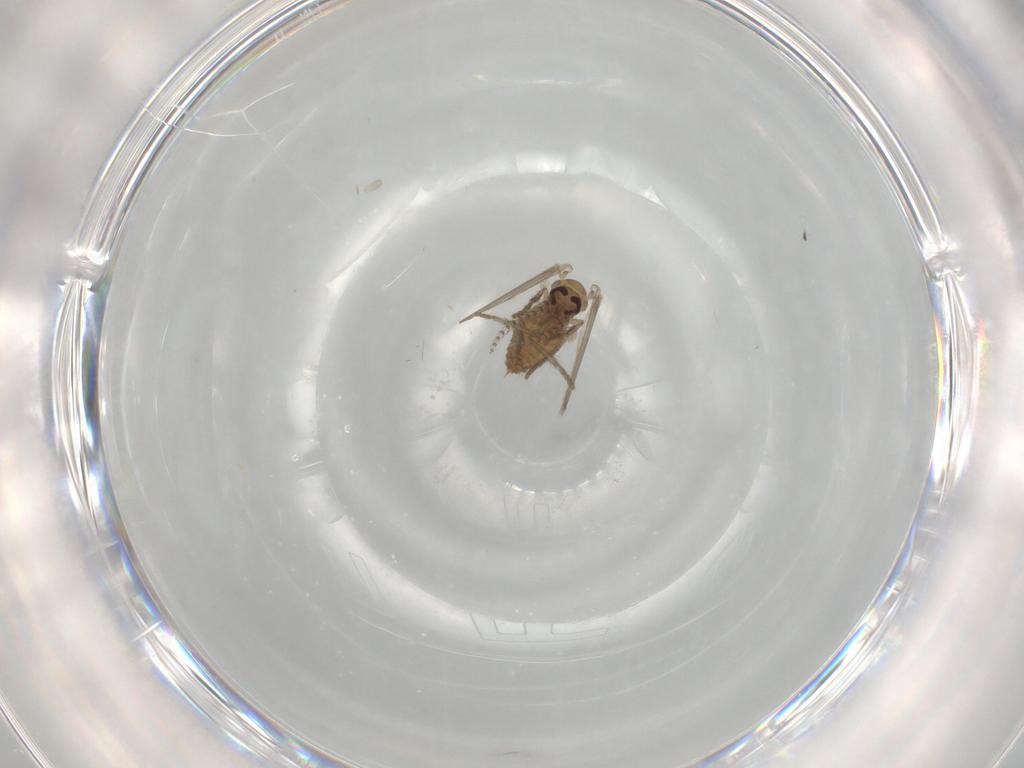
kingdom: Animalia
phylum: Arthropoda
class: Insecta
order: Diptera
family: Psychodidae
